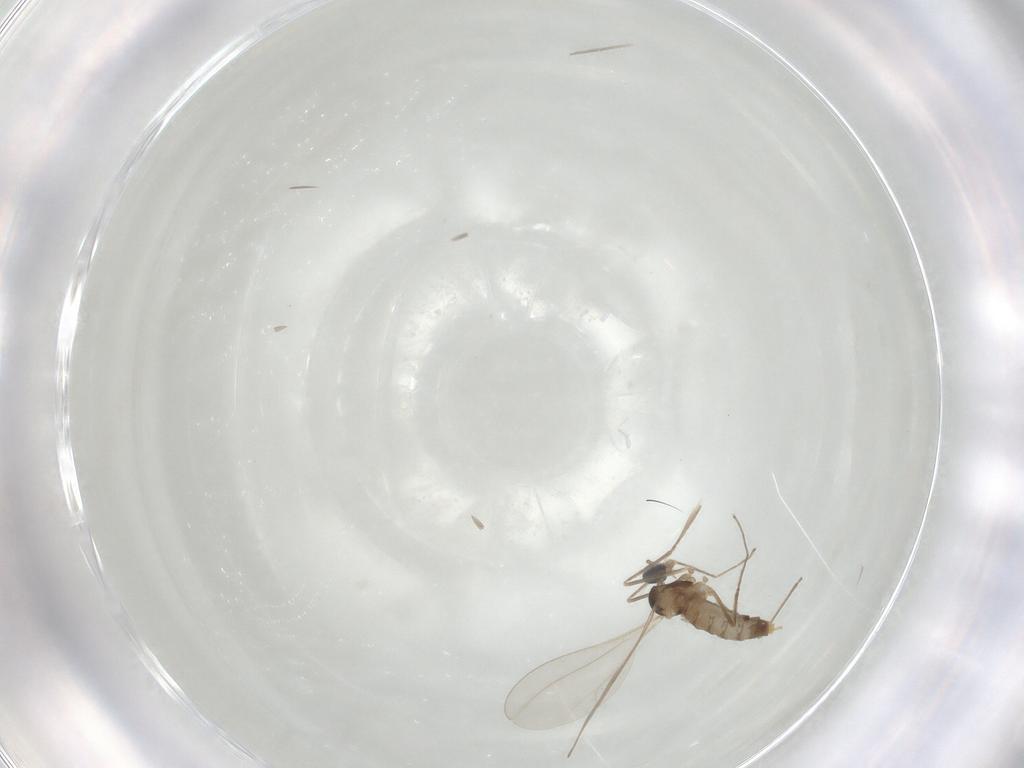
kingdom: Animalia
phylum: Arthropoda
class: Insecta
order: Diptera
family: Cecidomyiidae
